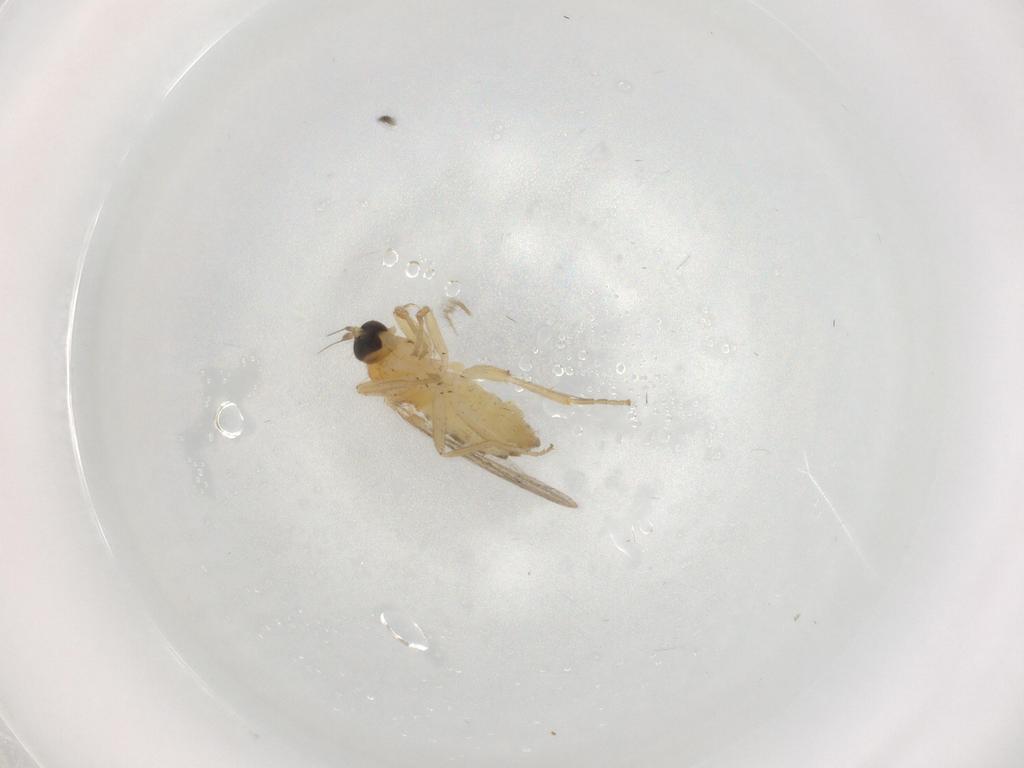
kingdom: Animalia
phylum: Arthropoda
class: Insecta
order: Diptera
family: Hybotidae
